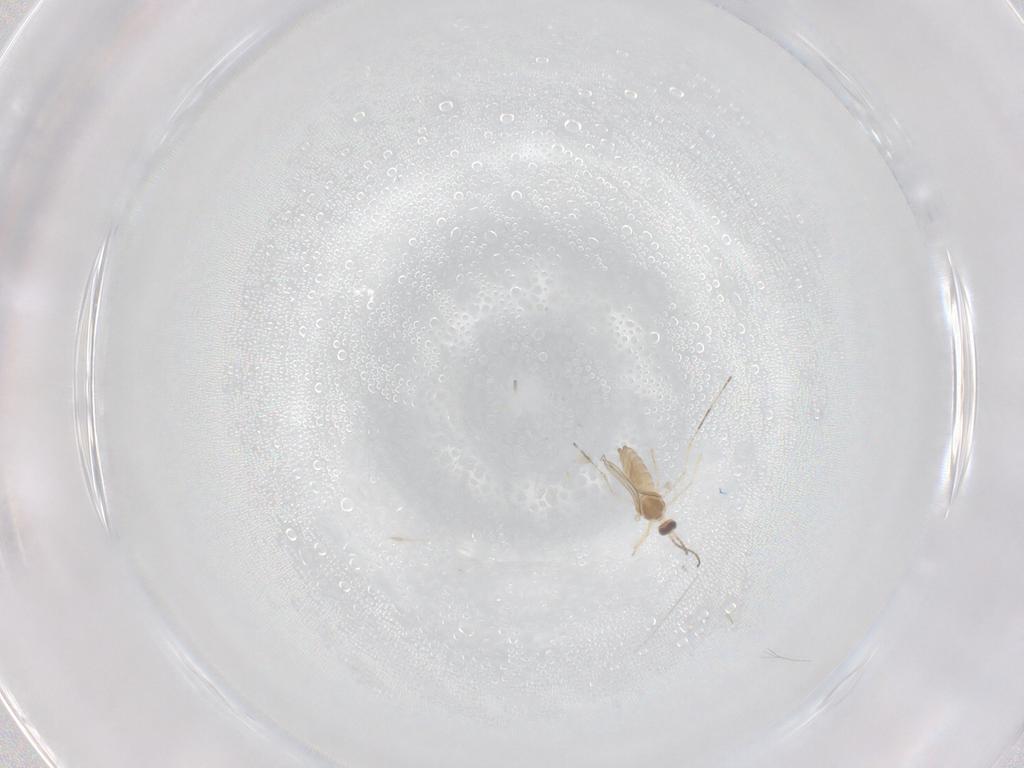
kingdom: Animalia
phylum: Arthropoda
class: Insecta
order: Diptera
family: Cecidomyiidae
